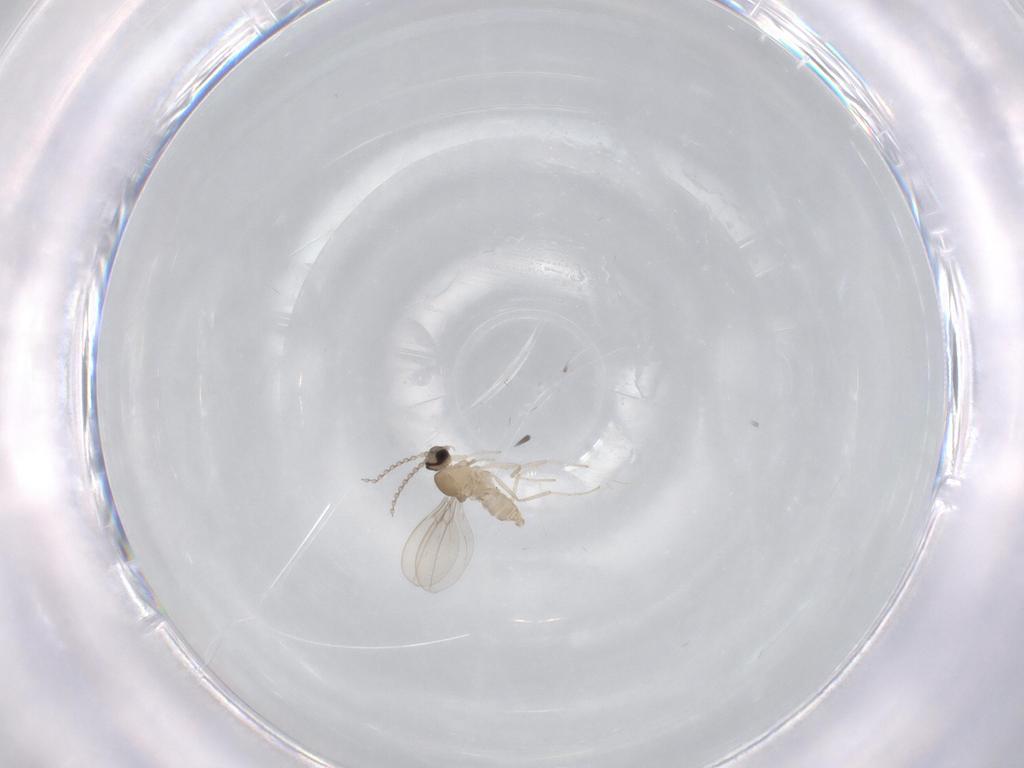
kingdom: Animalia
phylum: Arthropoda
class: Insecta
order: Diptera
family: Cecidomyiidae
